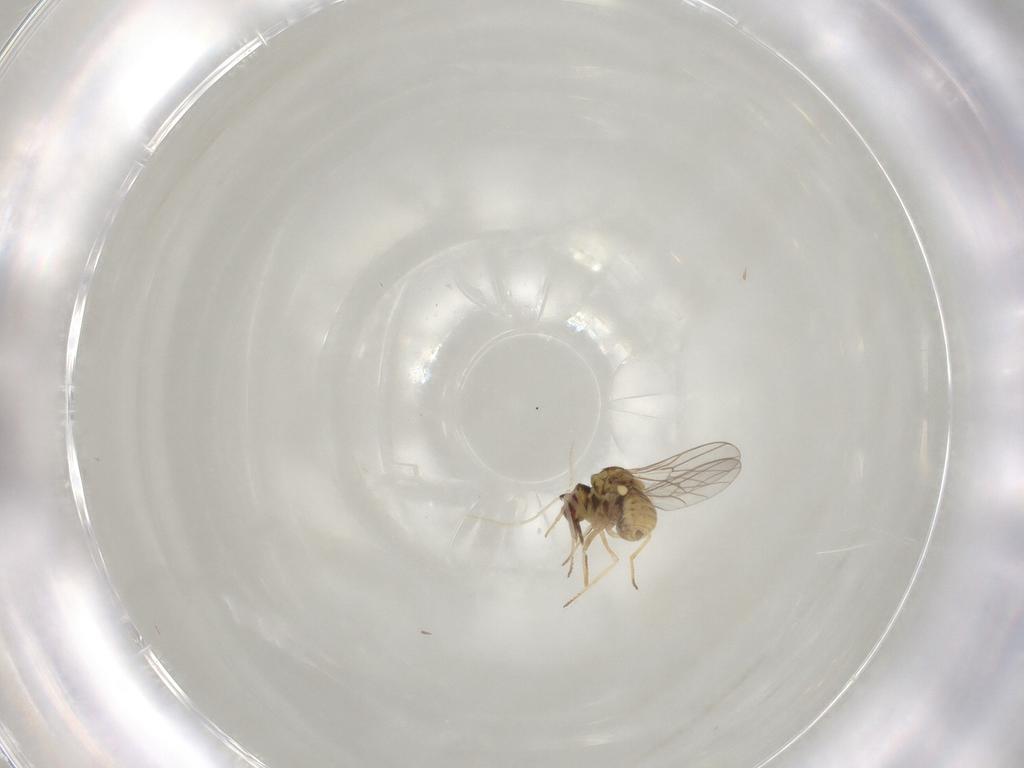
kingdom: Animalia
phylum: Arthropoda
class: Insecta
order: Diptera
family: Mythicomyiidae
